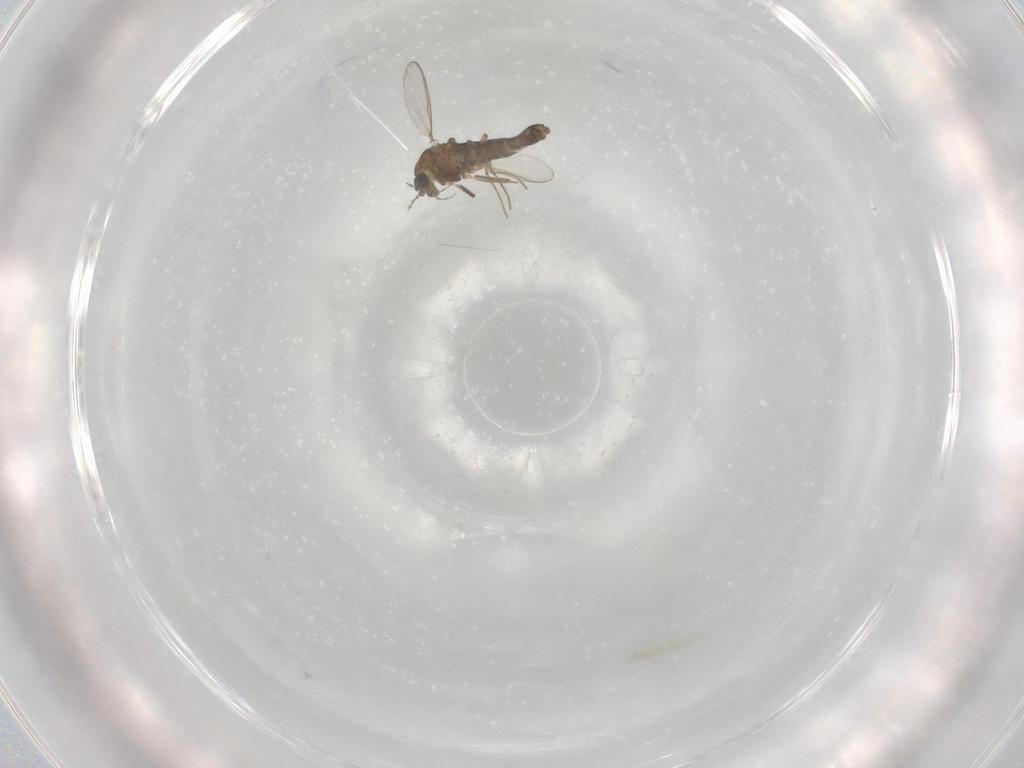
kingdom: Animalia
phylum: Arthropoda
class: Insecta
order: Diptera
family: Chironomidae
